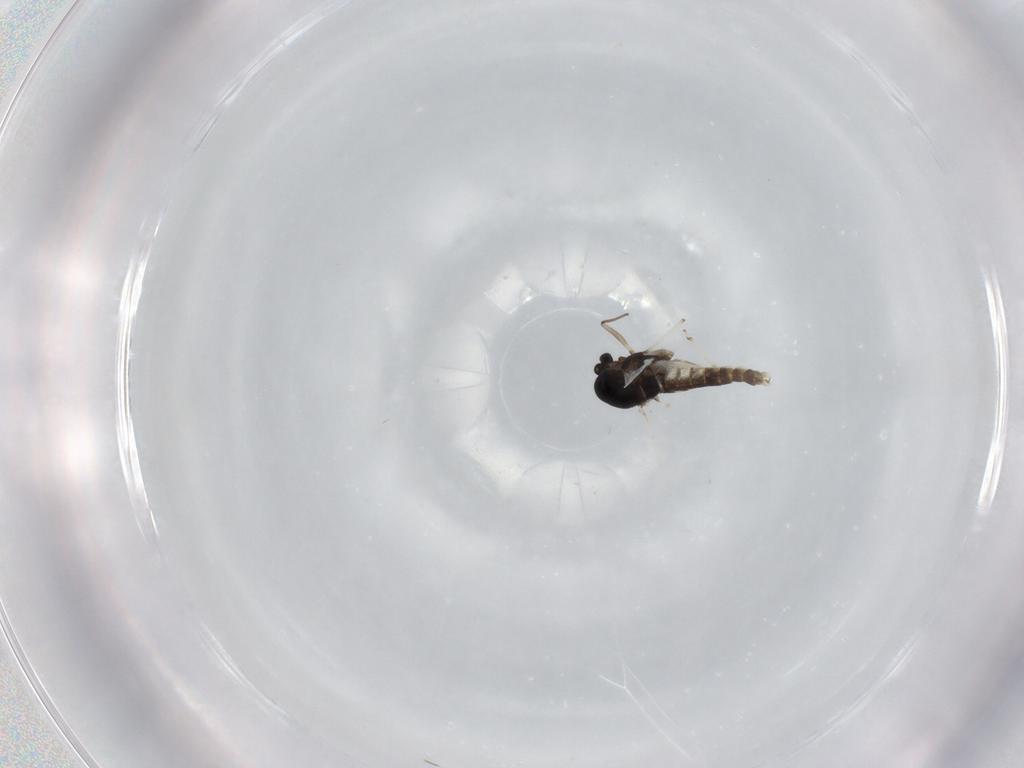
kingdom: Animalia
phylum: Arthropoda
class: Insecta
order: Diptera
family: Chironomidae
